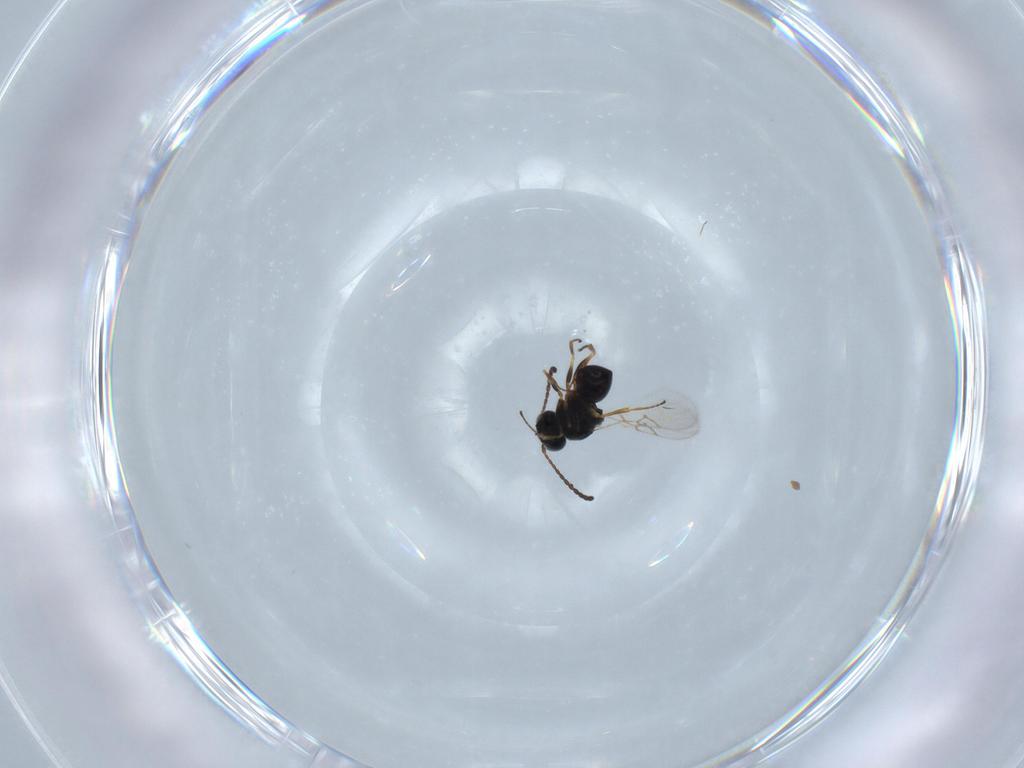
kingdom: Animalia
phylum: Arthropoda
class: Insecta
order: Hymenoptera
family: Figitidae
